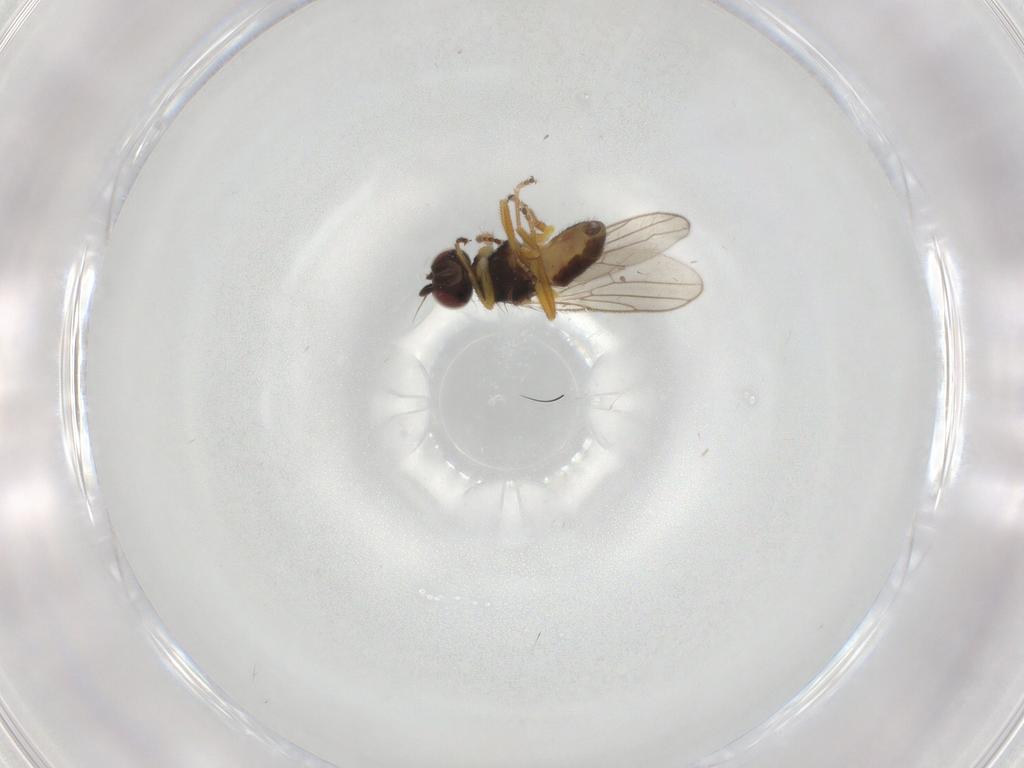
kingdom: Animalia
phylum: Arthropoda
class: Insecta
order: Diptera
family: Chloropidae
